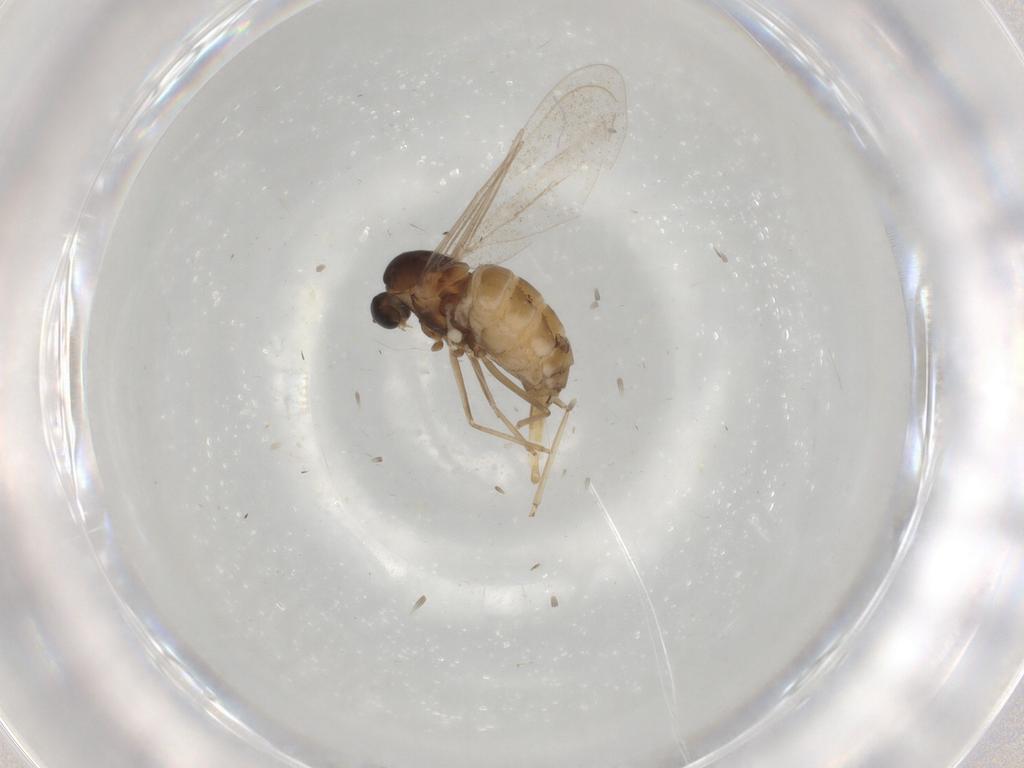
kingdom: Animalia
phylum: Arthropoda
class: Insecta
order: Diptera
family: Cecidomyiidae
